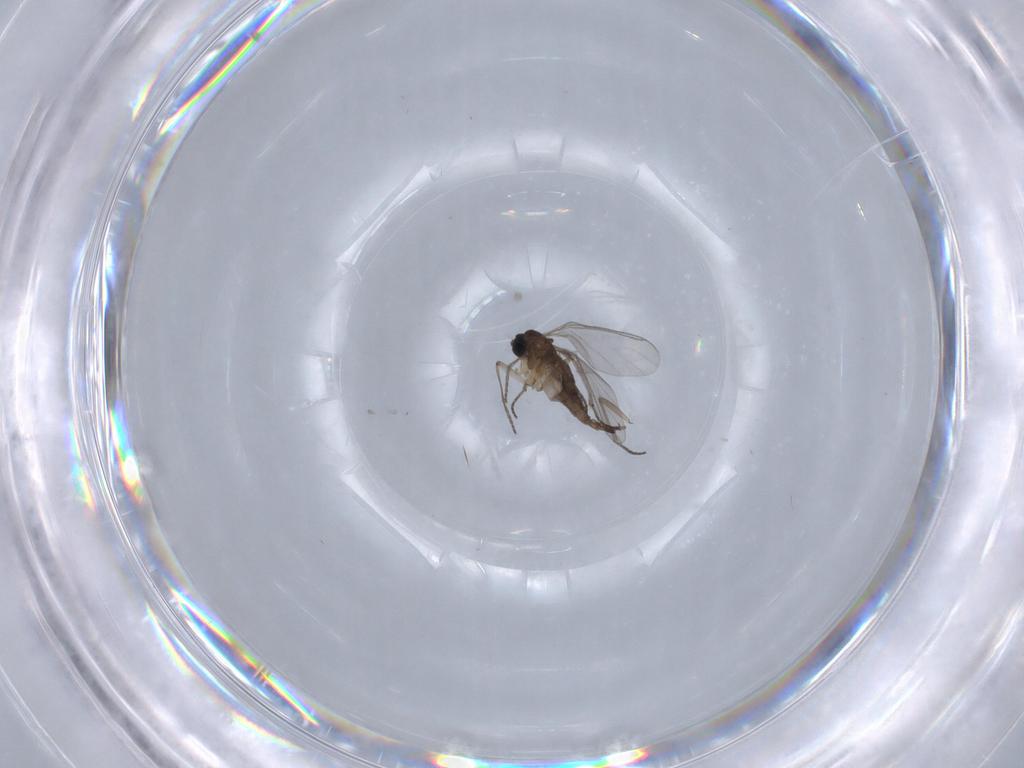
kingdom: Animalia
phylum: Arthropoda
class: Insecta
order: Diptera
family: Sciaridae
